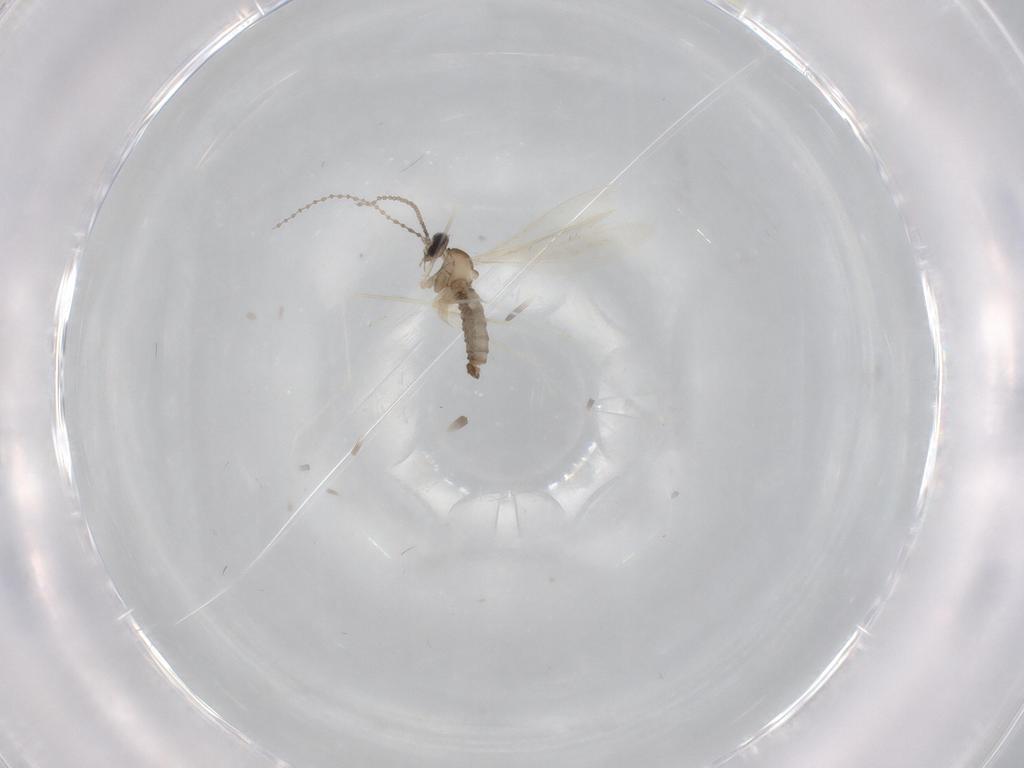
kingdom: Animalia
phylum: Arthropoda
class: Insecta
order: Diptera
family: Cecidomyiidae
